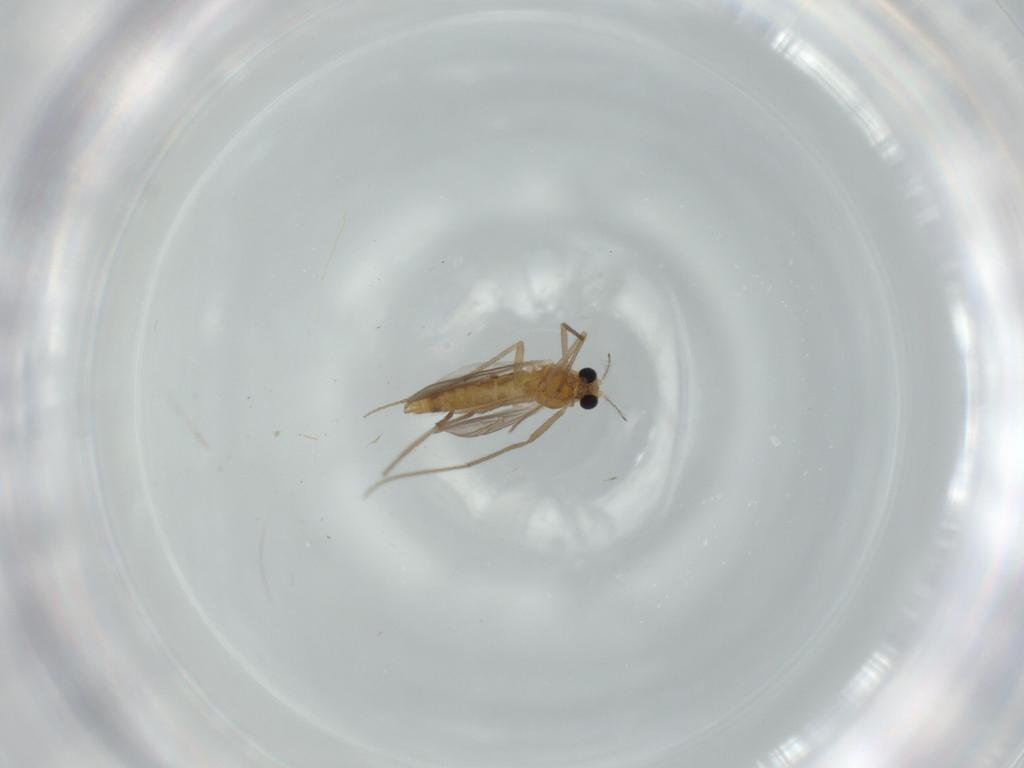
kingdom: Animalia
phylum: Arthropoda
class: Insecta
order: Diptera
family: Chironomidae
